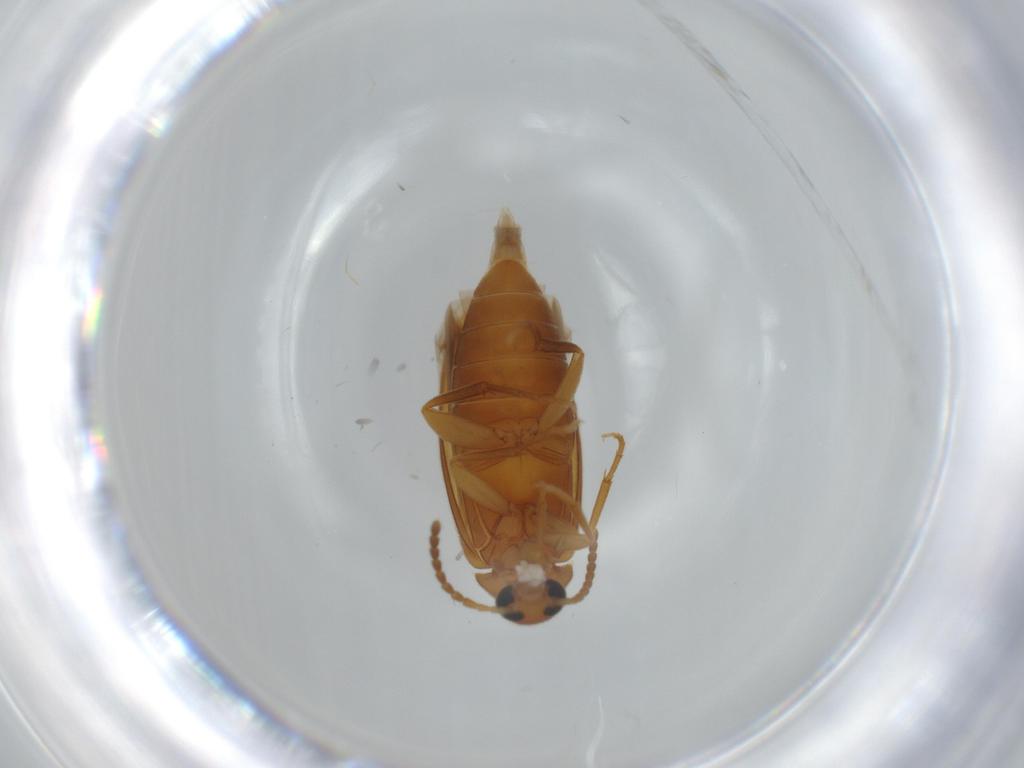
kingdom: Animalia
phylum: Arthropoda
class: Insecta
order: Coleoptera
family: Scraptiidae
